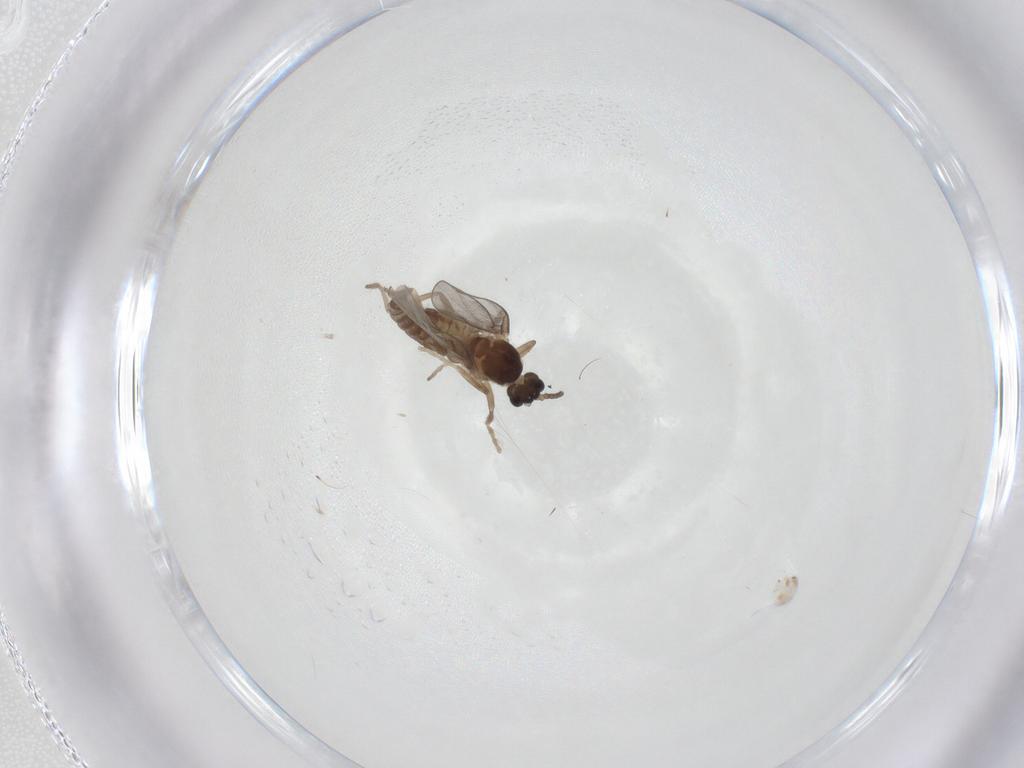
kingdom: Animalia
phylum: Arthropoda
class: Insecta
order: Diptera
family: Cecidomyiidae
